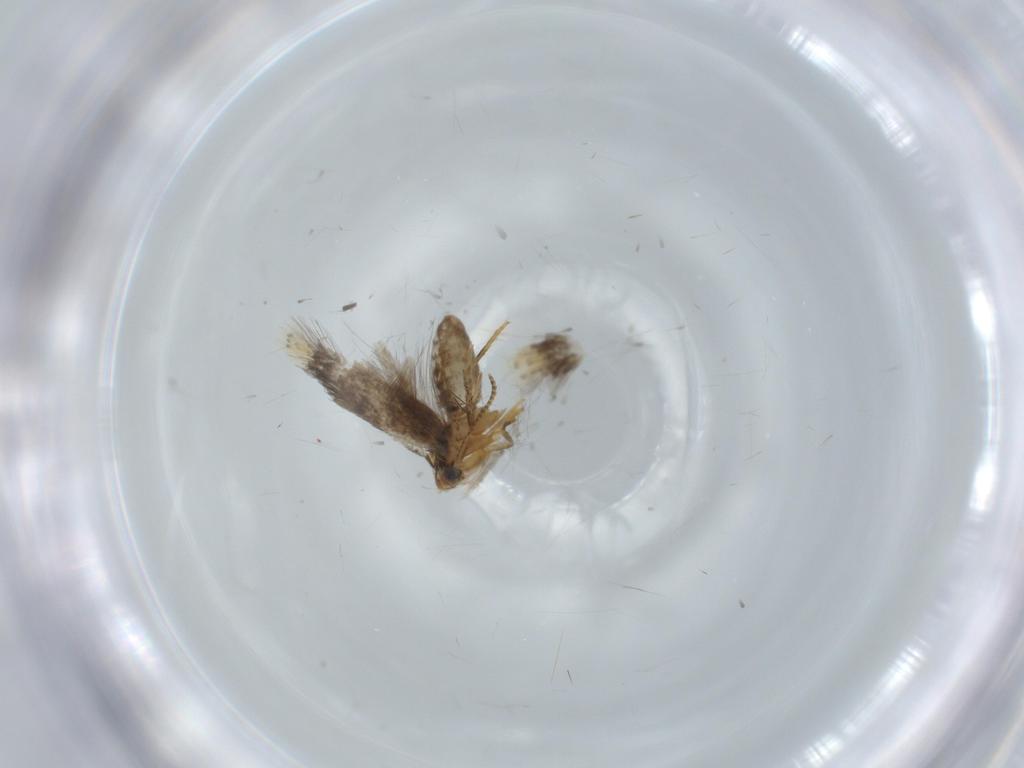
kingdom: Animalia
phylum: Arthropoda
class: Insecta
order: Lepidoptera
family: Nepticulidae
